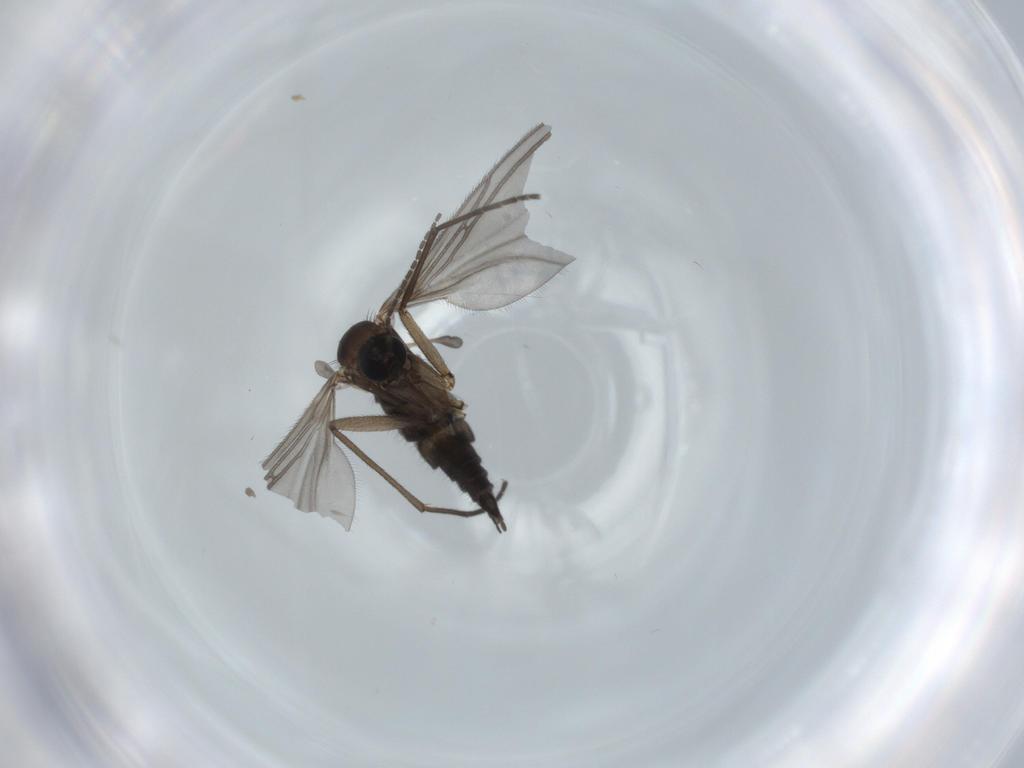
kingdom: Animalia
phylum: Arthropoda
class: Insecta
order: Diptera
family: Sciaridae
